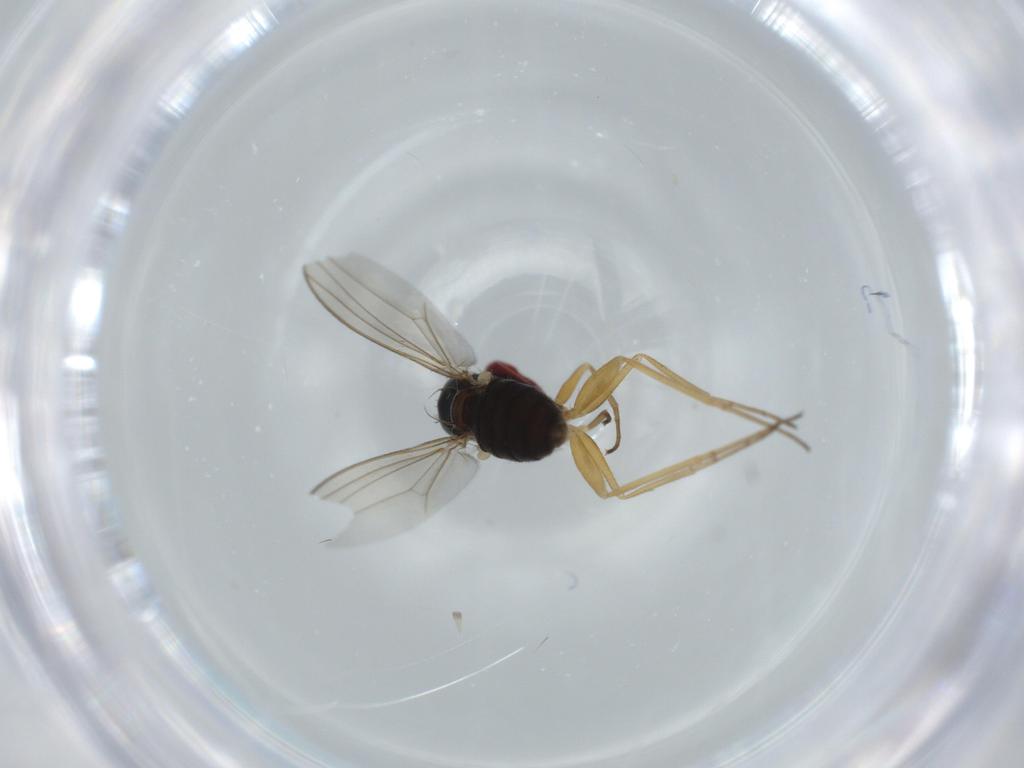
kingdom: Animalia
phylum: Arthropoda
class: Insecta
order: Diptera
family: Dolichopodidae
